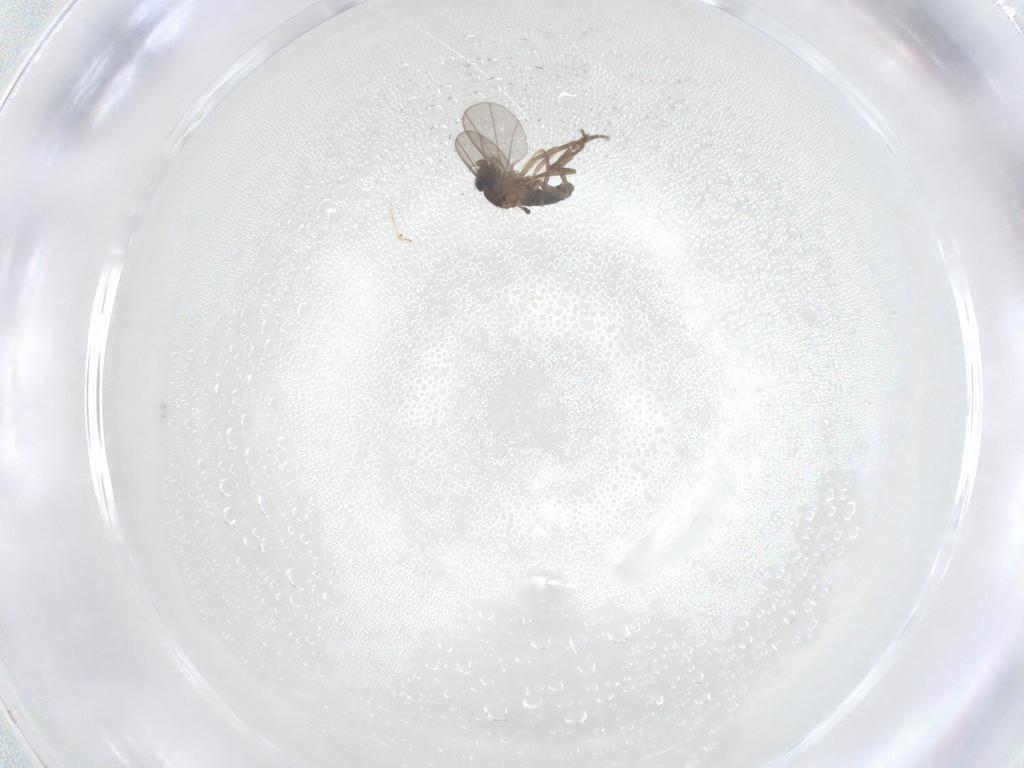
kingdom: Animalia
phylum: Arthropoda
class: Insecta
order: Diptera
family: Phoridae
